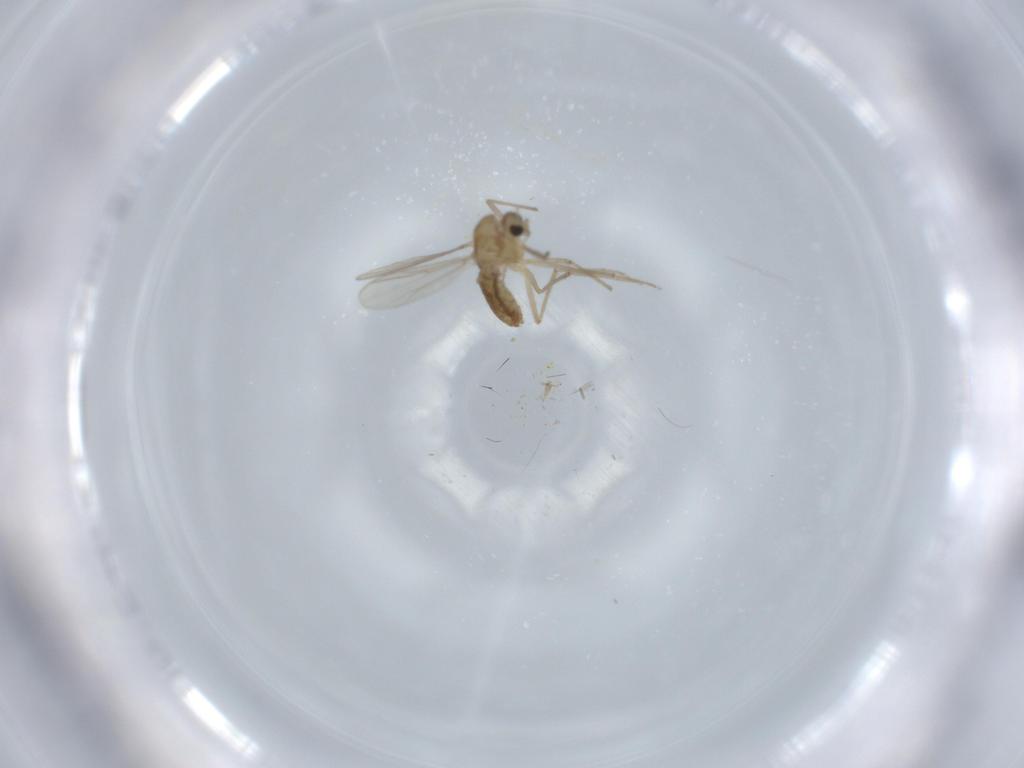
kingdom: Animalia
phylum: Arthropoda
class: Insecta
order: Diptera
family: Chironomidae
